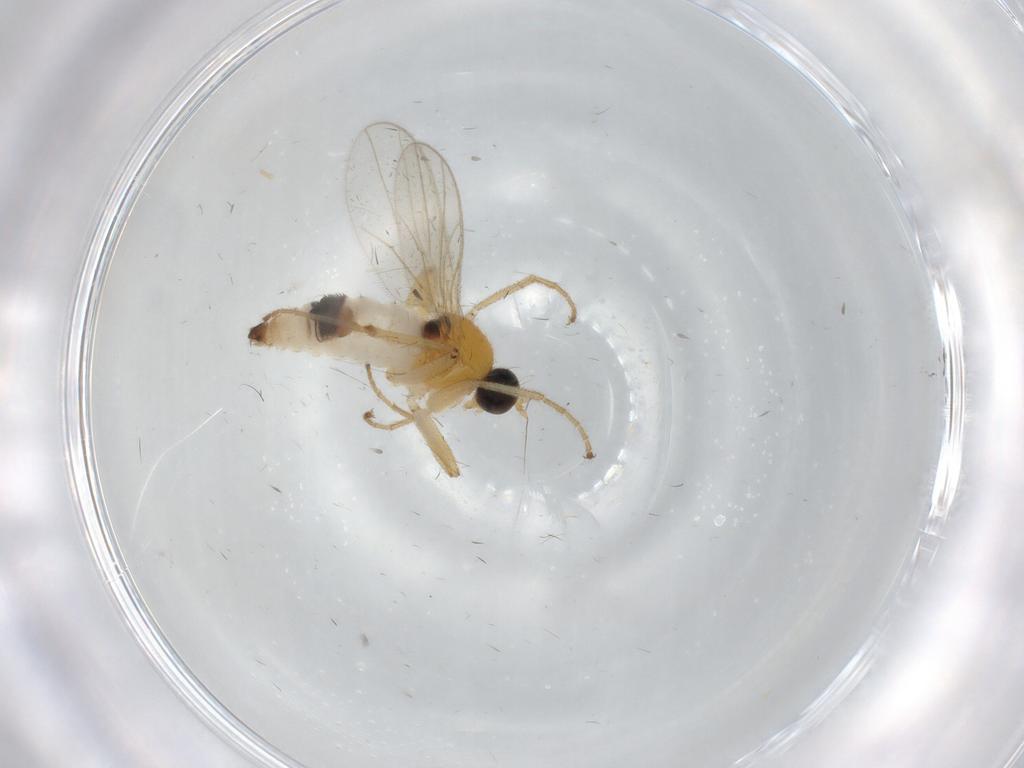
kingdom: Animalia
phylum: Arthropoda
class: Insecta
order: Diptera
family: Hybotidae
